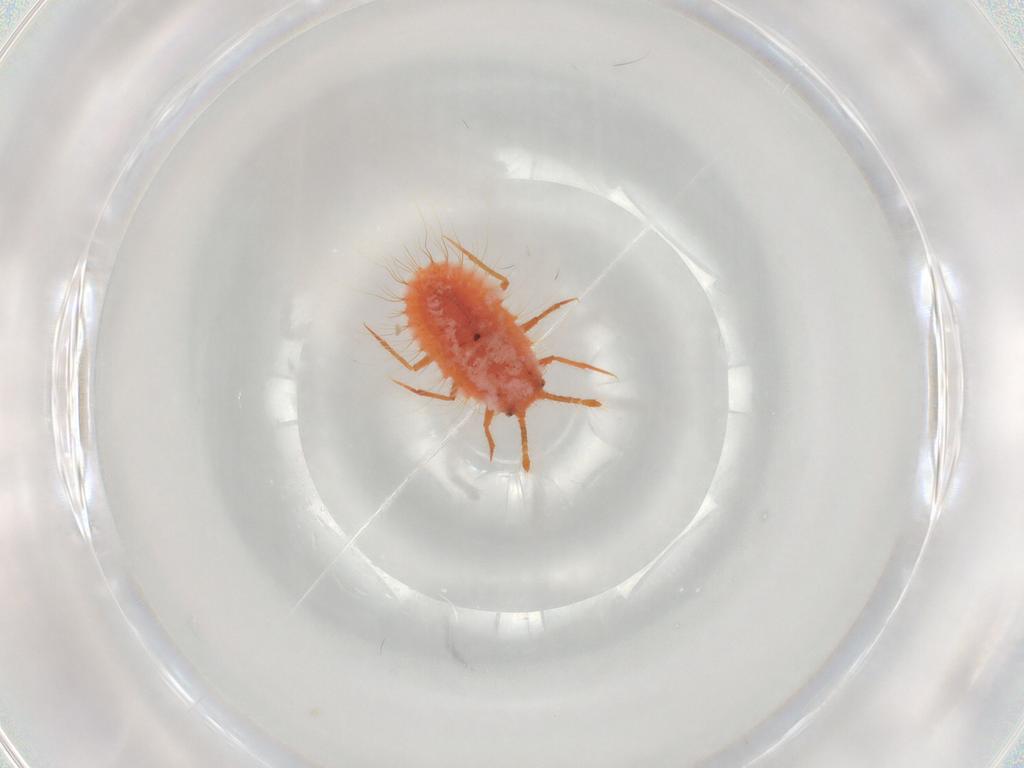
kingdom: Animalia
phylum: Arthropoda
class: Insecta
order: Hemiptera
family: Coccoidea_incertae_sedis
